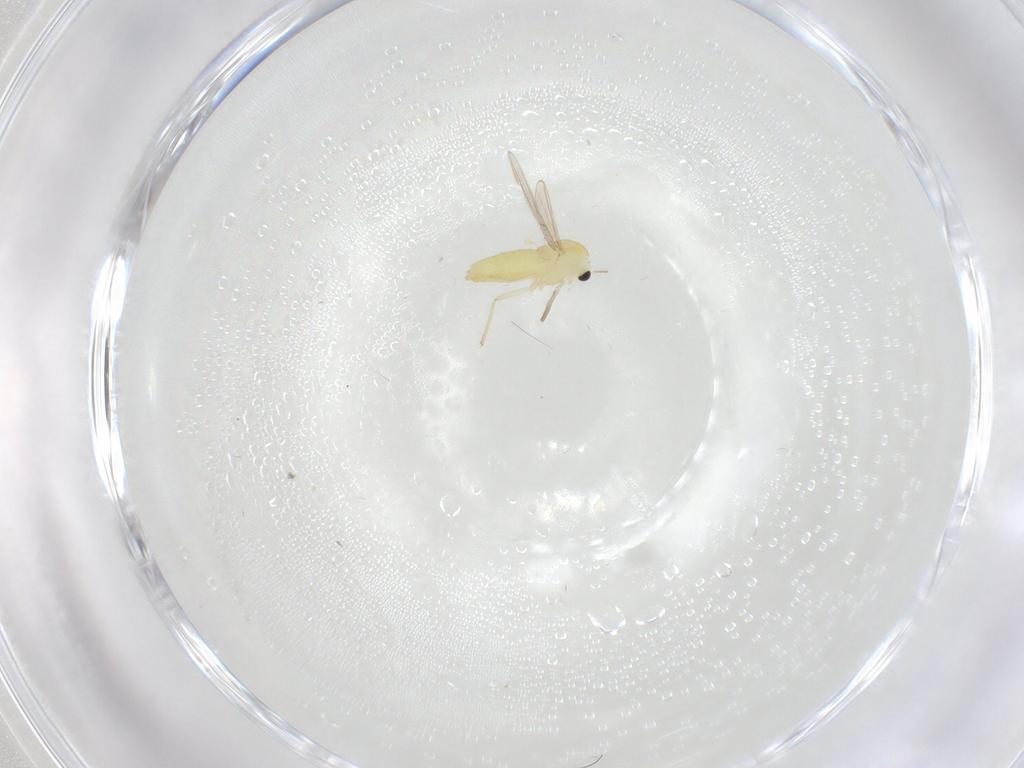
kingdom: Animalia
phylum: Arthropoda
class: Insecta
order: Diptera
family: Chironomidae
